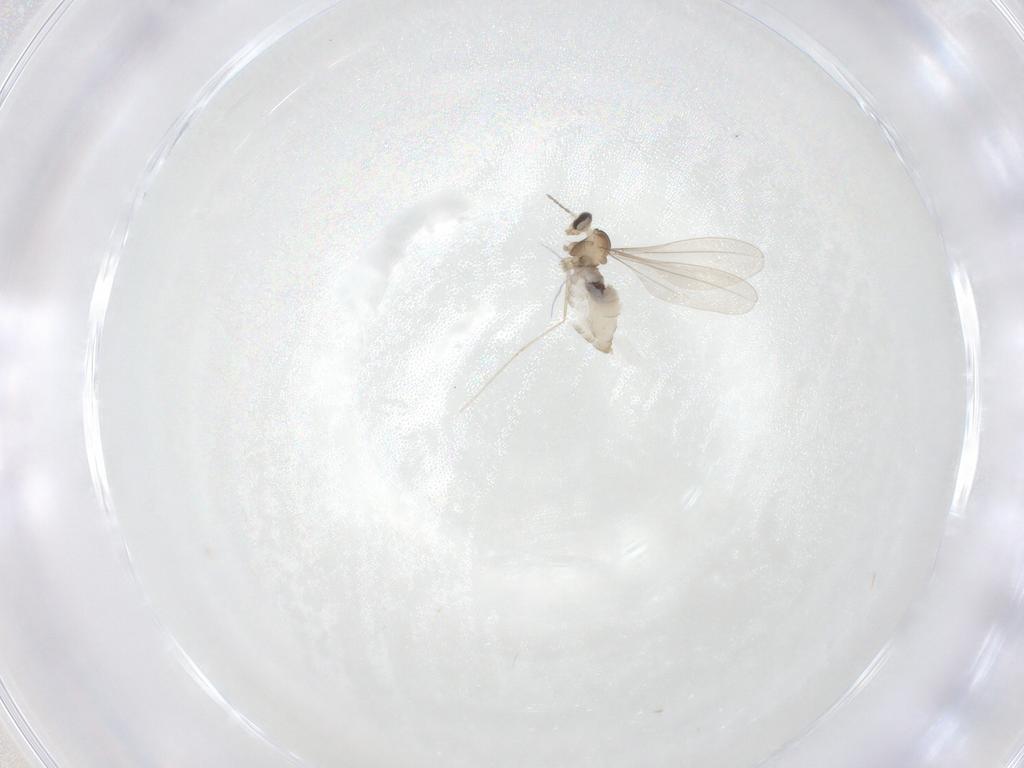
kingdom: Animalia
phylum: Arthropoda
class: Insecta
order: Diptera
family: Cecidomyiidae
